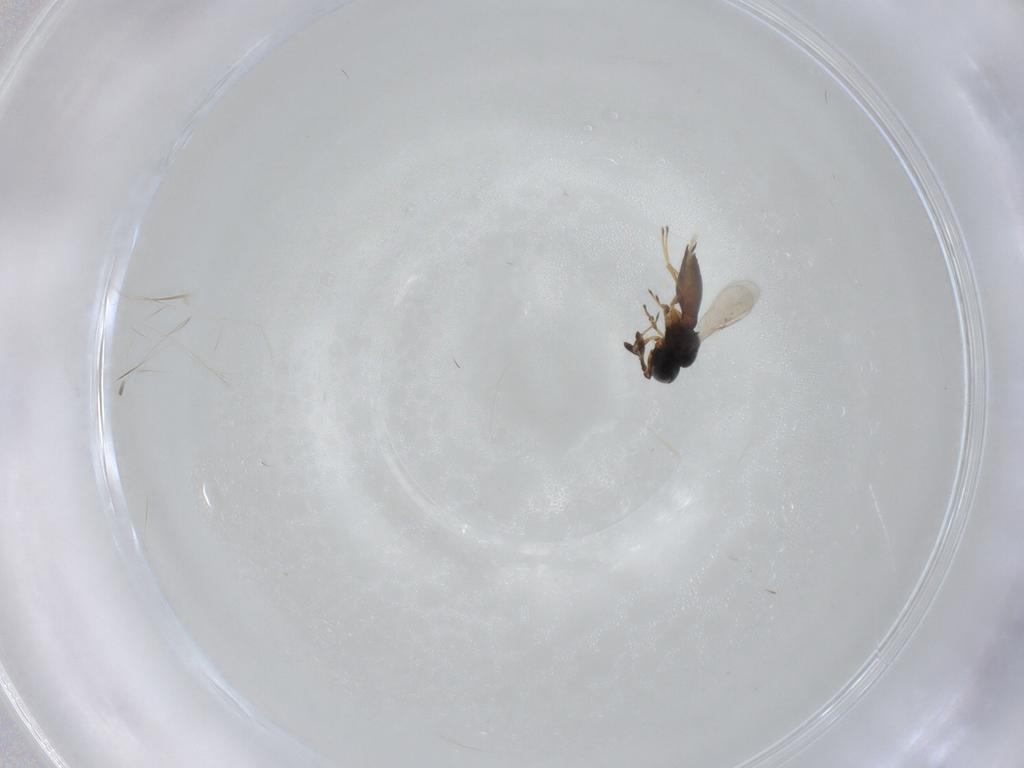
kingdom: Animalia
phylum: Arthropoda
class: Insecta
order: Hymenoptera
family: Scelionidae
